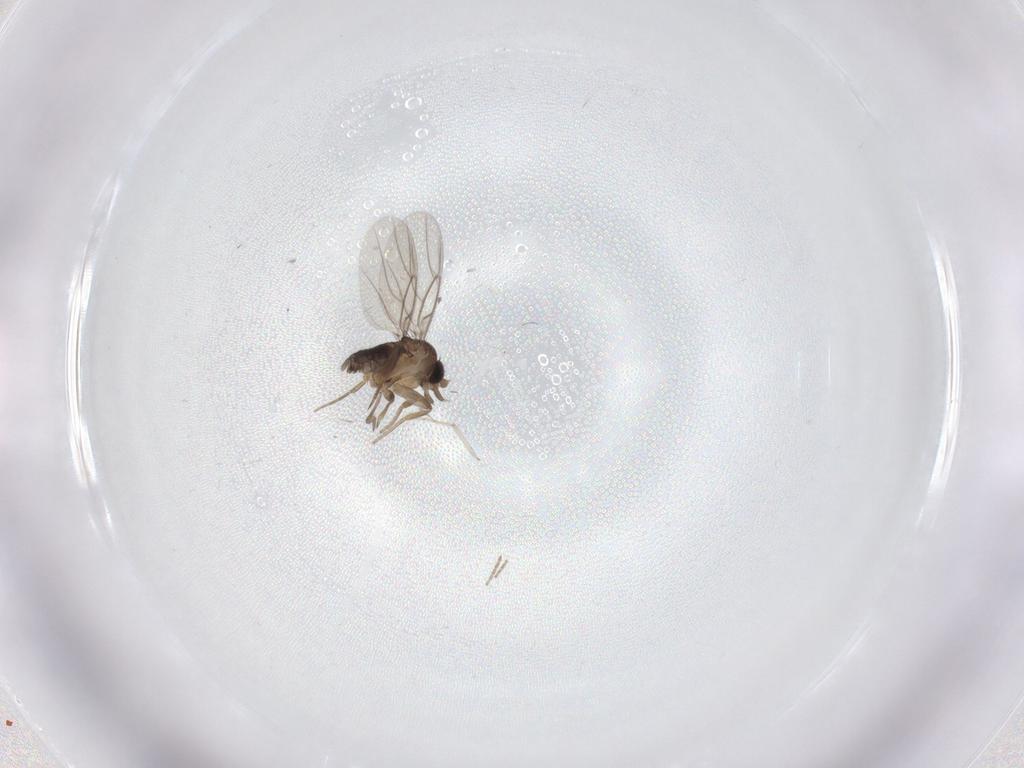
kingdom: Animalia
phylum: Arthropoda
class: Insecta
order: Diptera
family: Phoridae
